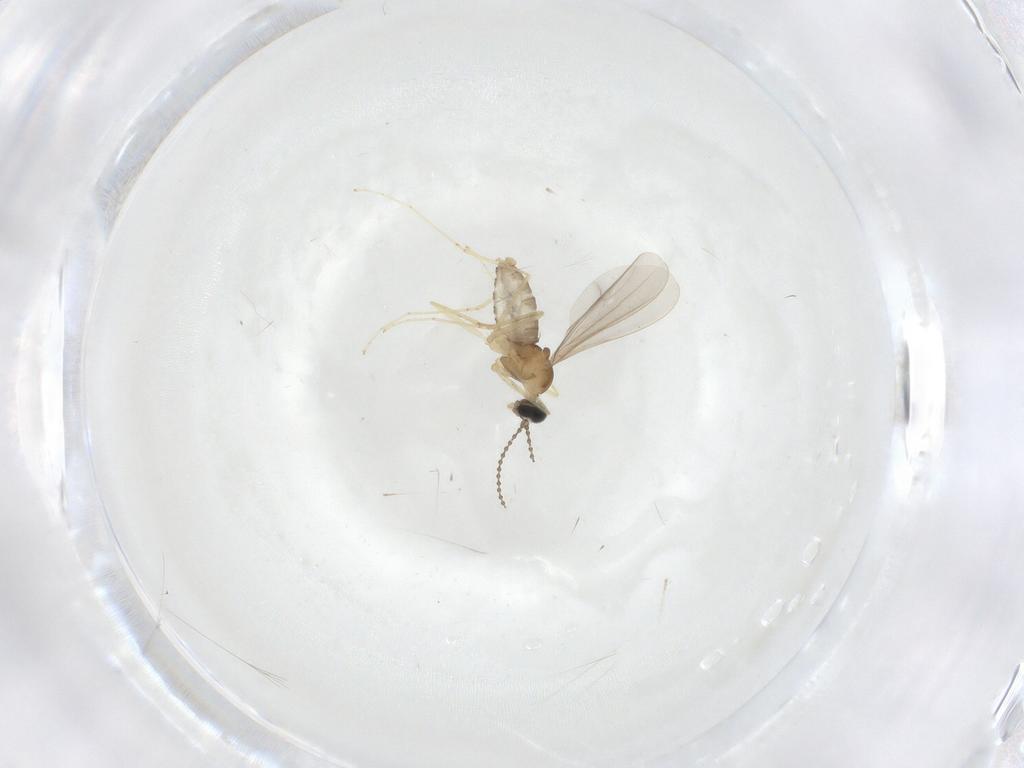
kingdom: Animalia
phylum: Arthropoda
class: Insecta
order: Diptera
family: Cecidomyiidae
